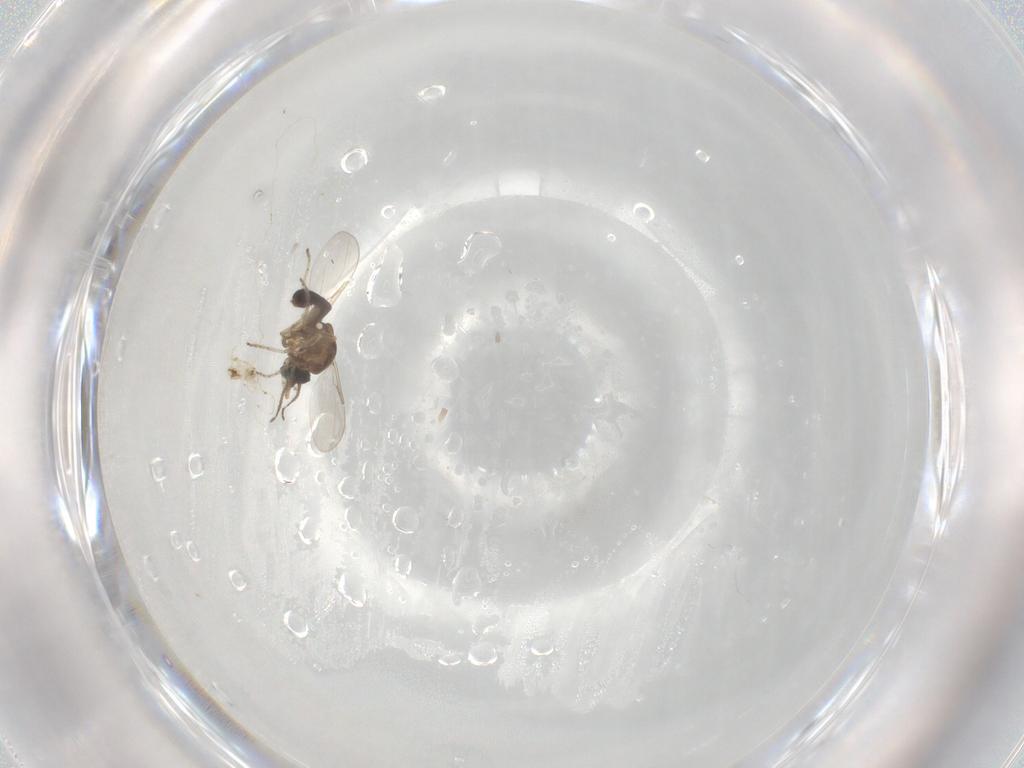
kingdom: Animalia
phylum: Arthropoda
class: Insecta
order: Diptera
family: Ceratopogonidae
